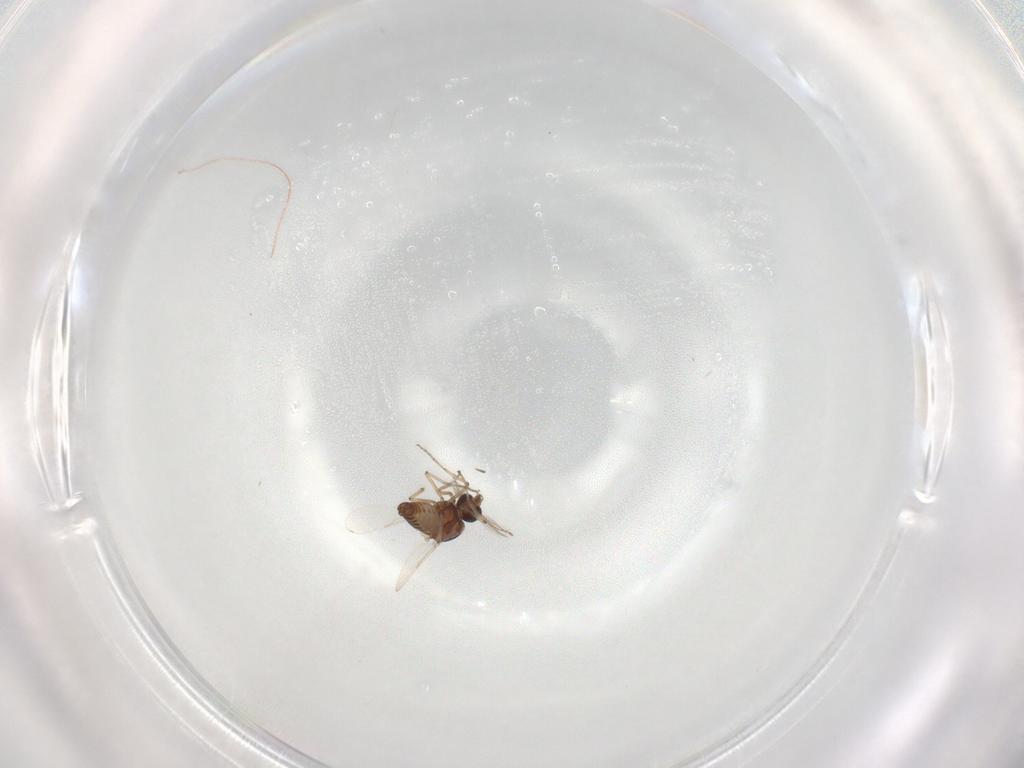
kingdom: Animalia
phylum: Arthropoda
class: Insecta
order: Diptera
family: Ceratopogonidae
